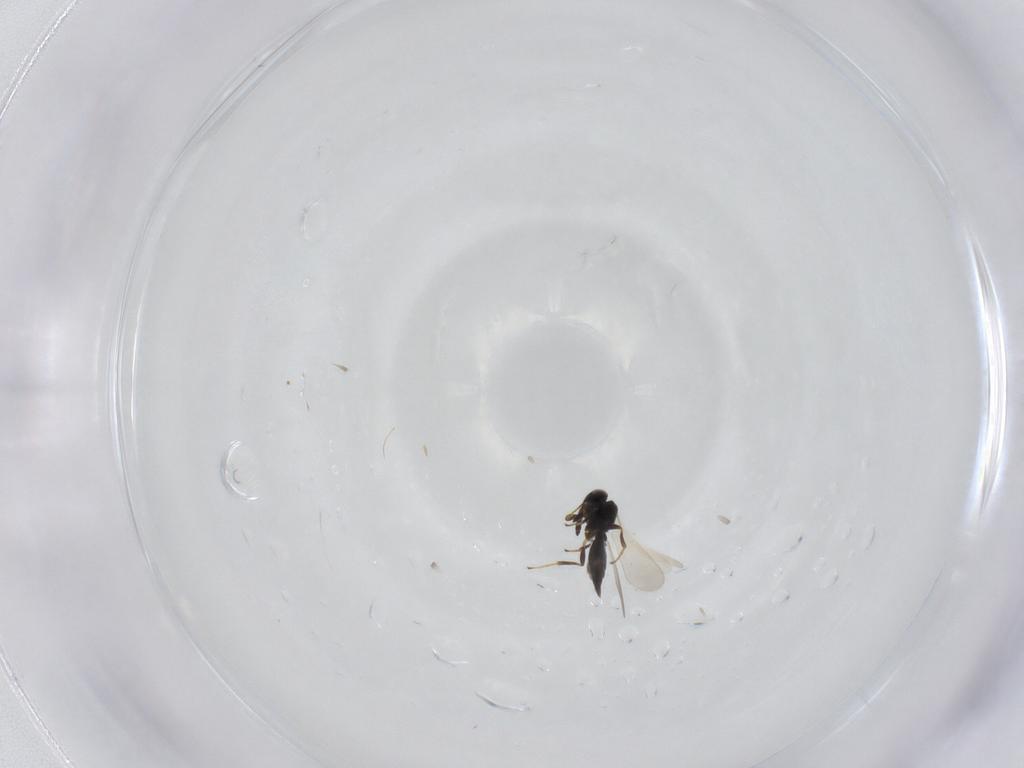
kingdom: Animalia
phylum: Arthropoda
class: Insecta
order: Hymenoptera
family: Platygastridae
